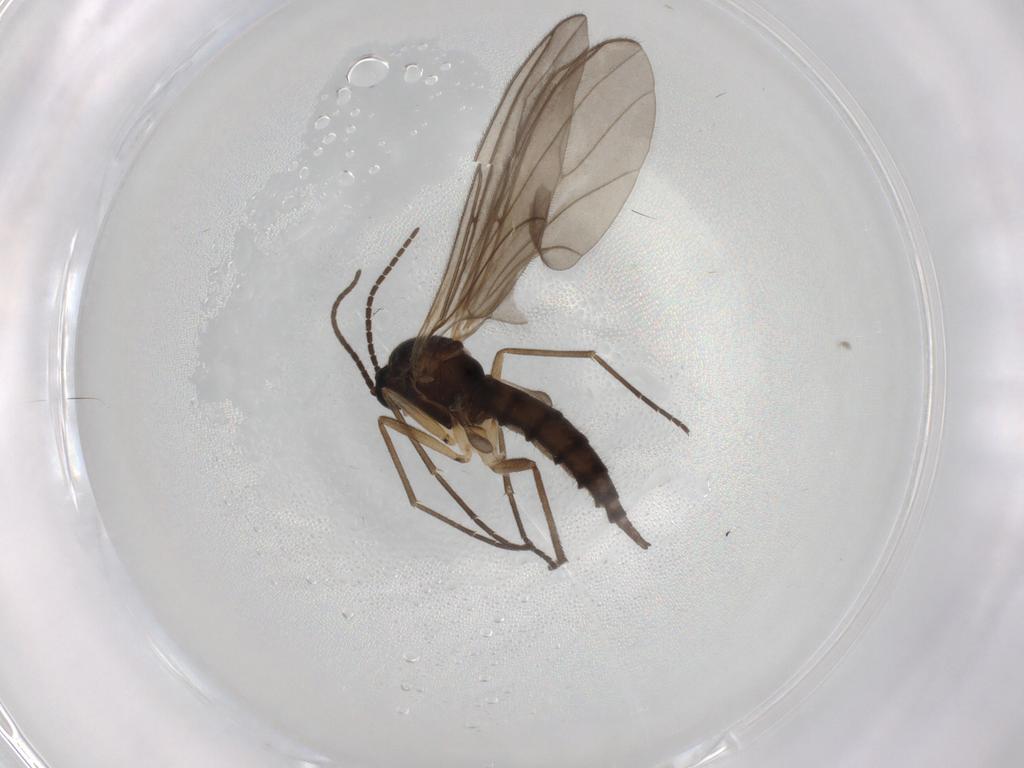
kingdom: Animalia
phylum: Arthropoda
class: Insecta
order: Diptera
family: Sciaridae
